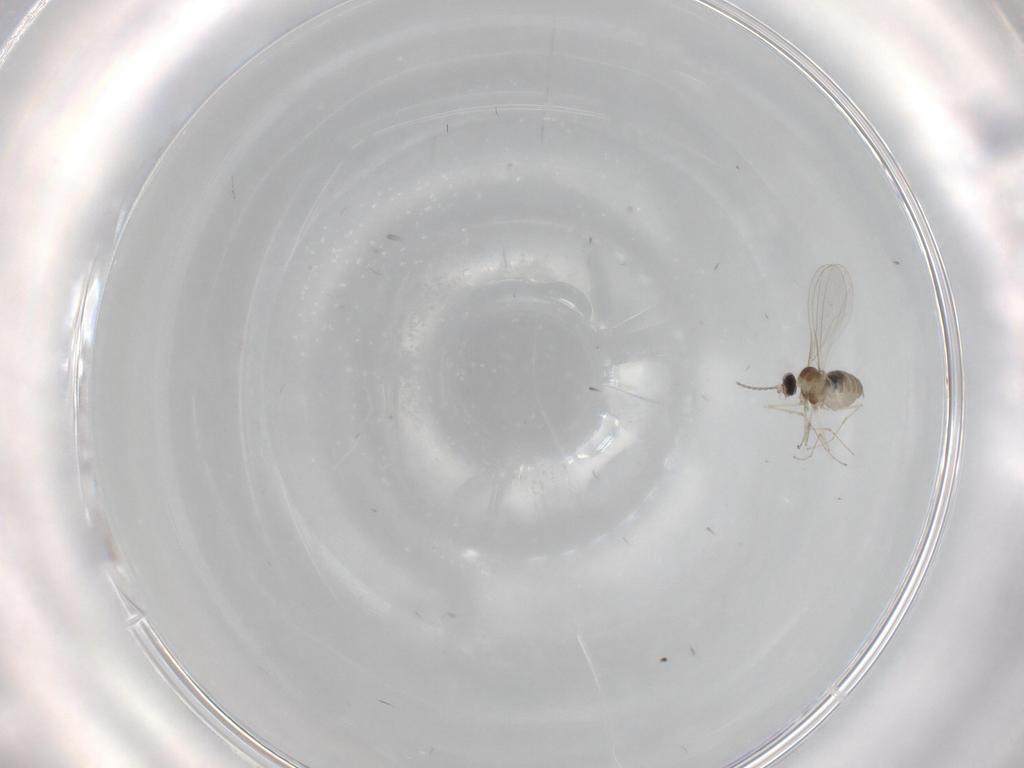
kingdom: Animalia
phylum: Arthropoda
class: Insecta
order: Diptera
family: Cecidomyiidae
